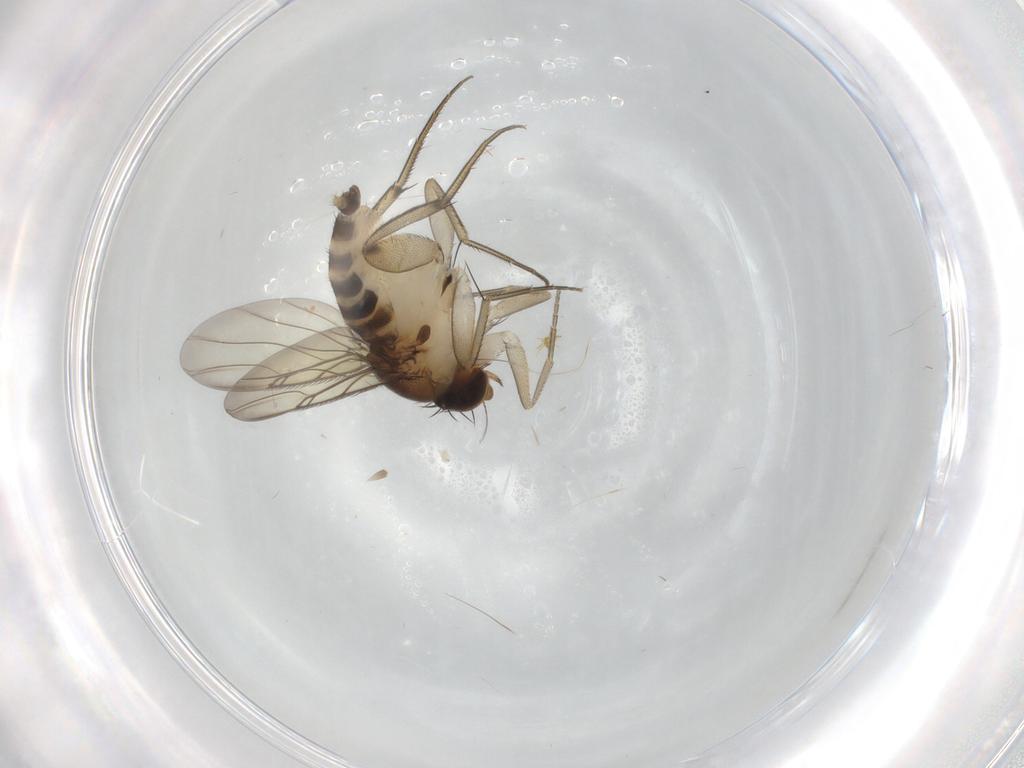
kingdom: Animalia
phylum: Arthropoda
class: Insecta
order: Diptera
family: Phoridae
